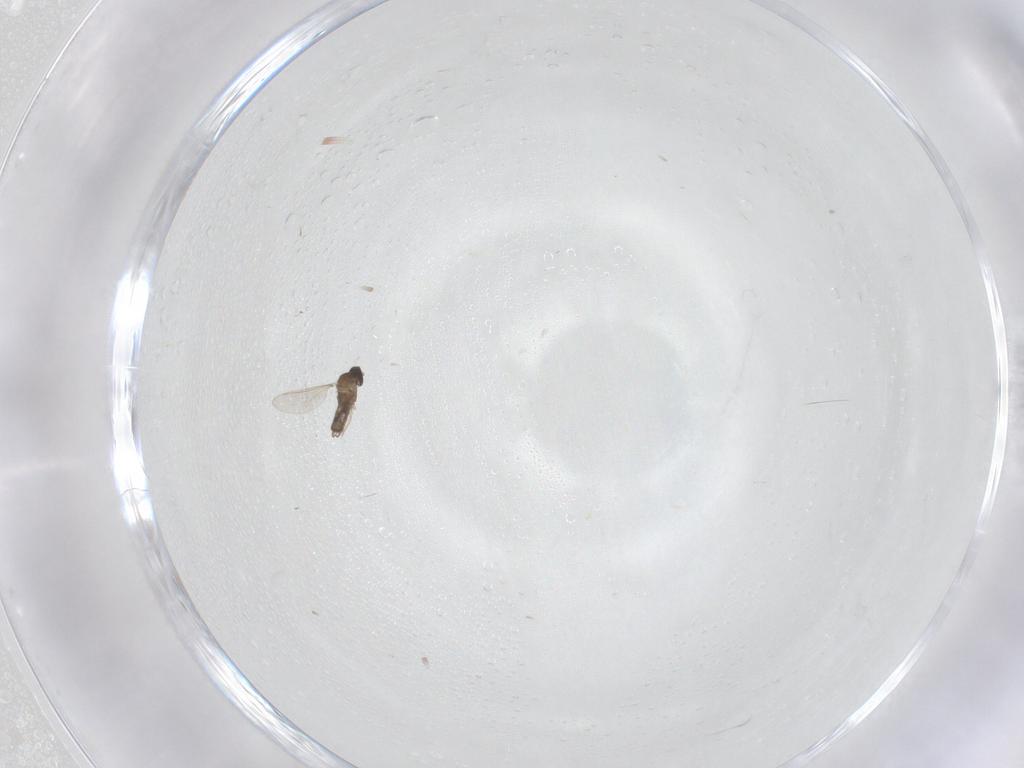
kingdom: Animalia
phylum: Arthropoda
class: Insecta
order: Diptera
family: Cecidomyiidae
